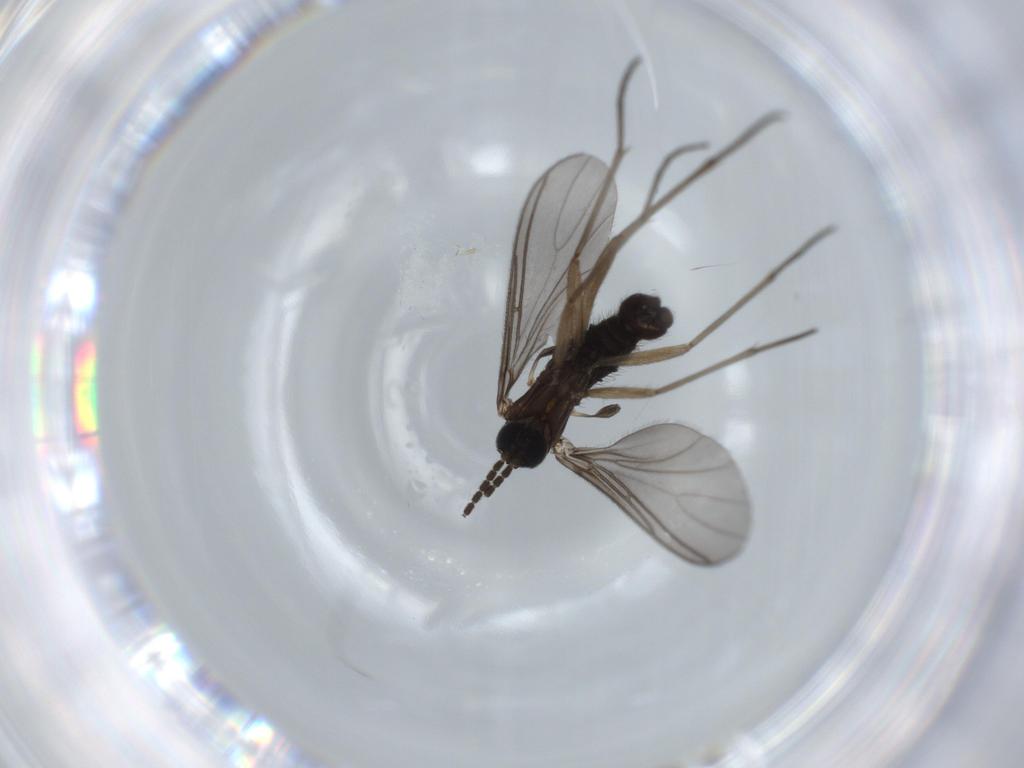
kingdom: Animalia
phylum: Arthropoda
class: Insecta
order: Diptera
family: Sciaridae
